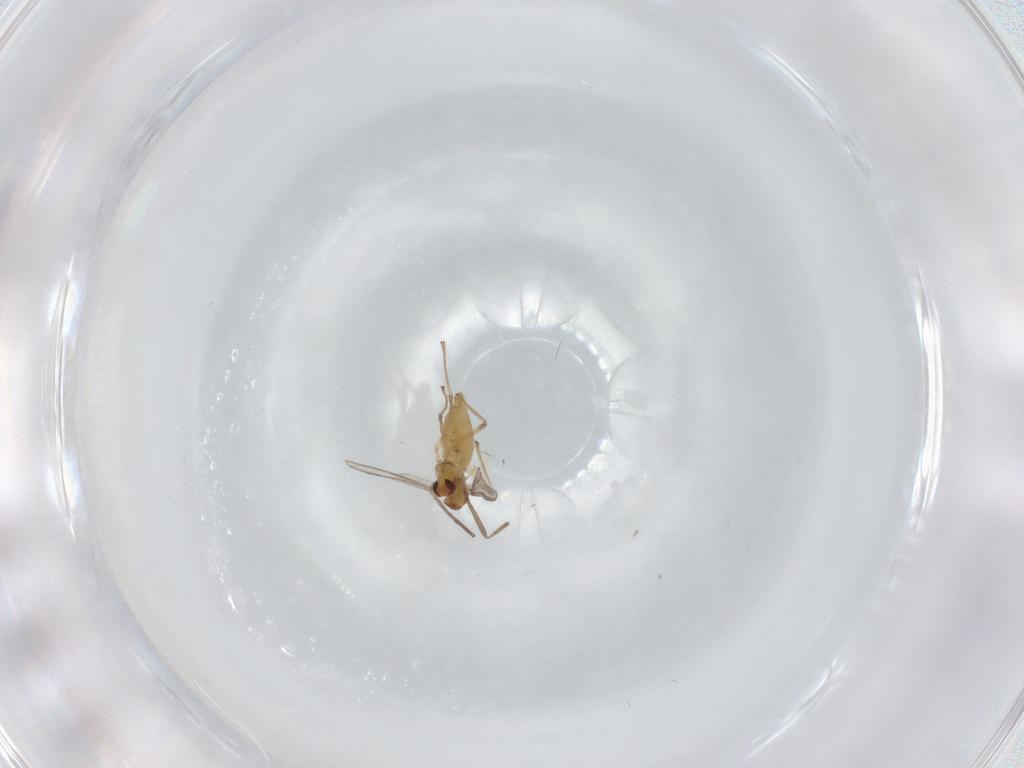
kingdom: Animalia
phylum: Arthropoda
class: Insecta
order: Diptera
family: Chironomidae
